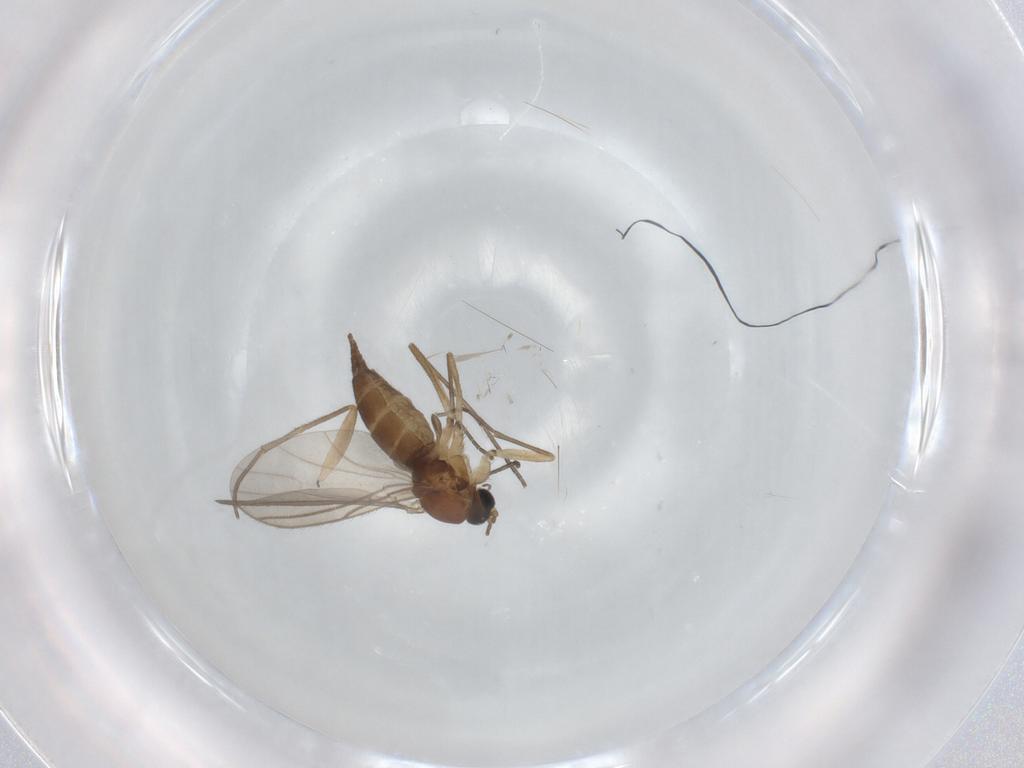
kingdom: Animalia
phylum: Arthropoda
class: Insecta
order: Diptera
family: Sciaridae
